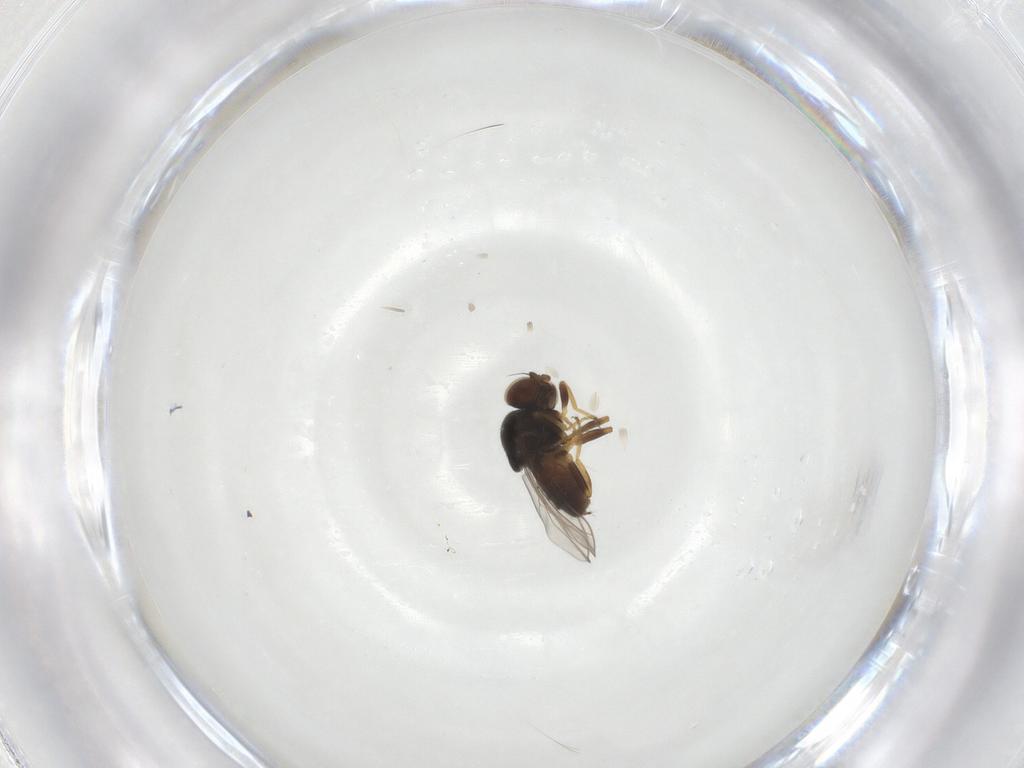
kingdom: Animalia
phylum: Arthropoda
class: Insecta
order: Diptera
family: Chloropidae
